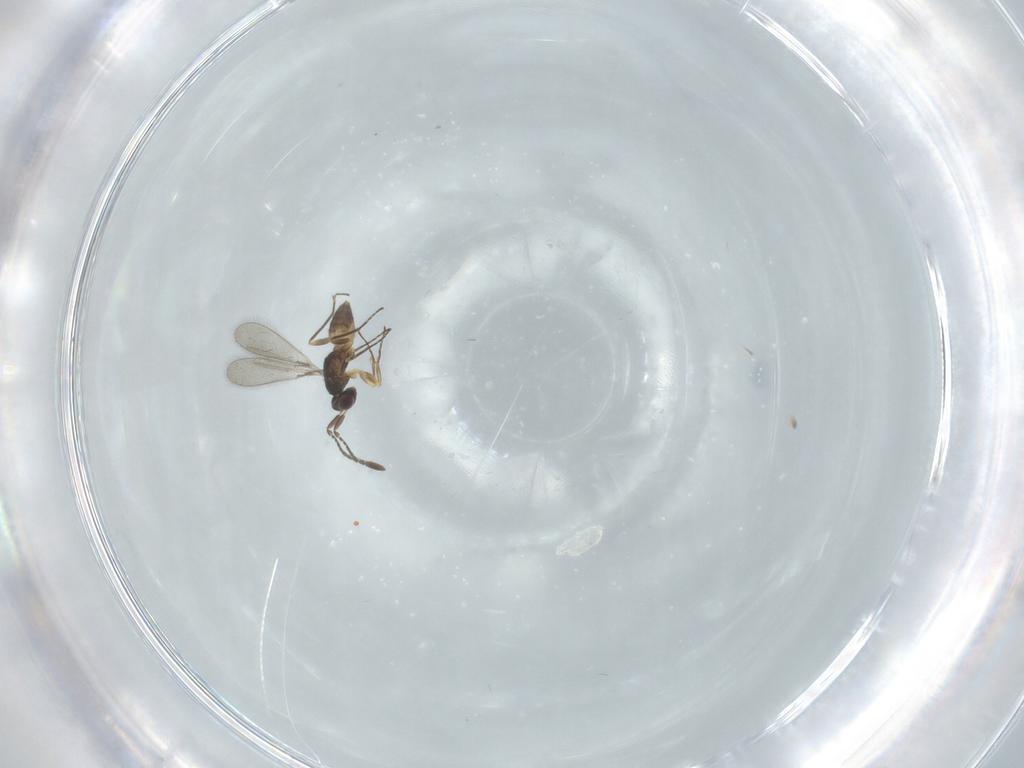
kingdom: Animalia
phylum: Arthropoda
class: Insecta
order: Hymenoptera
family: Mymaridae
